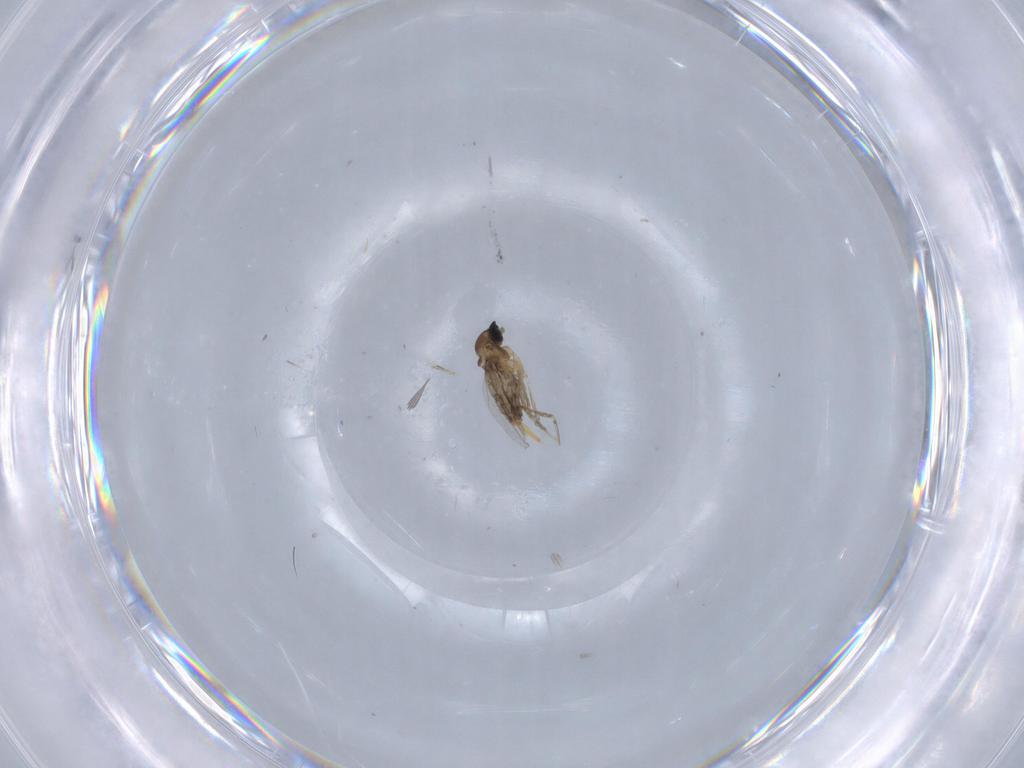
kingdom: Animalia
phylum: Arthropoda
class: Insecta
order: Diptera
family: Cecidomyiidae
